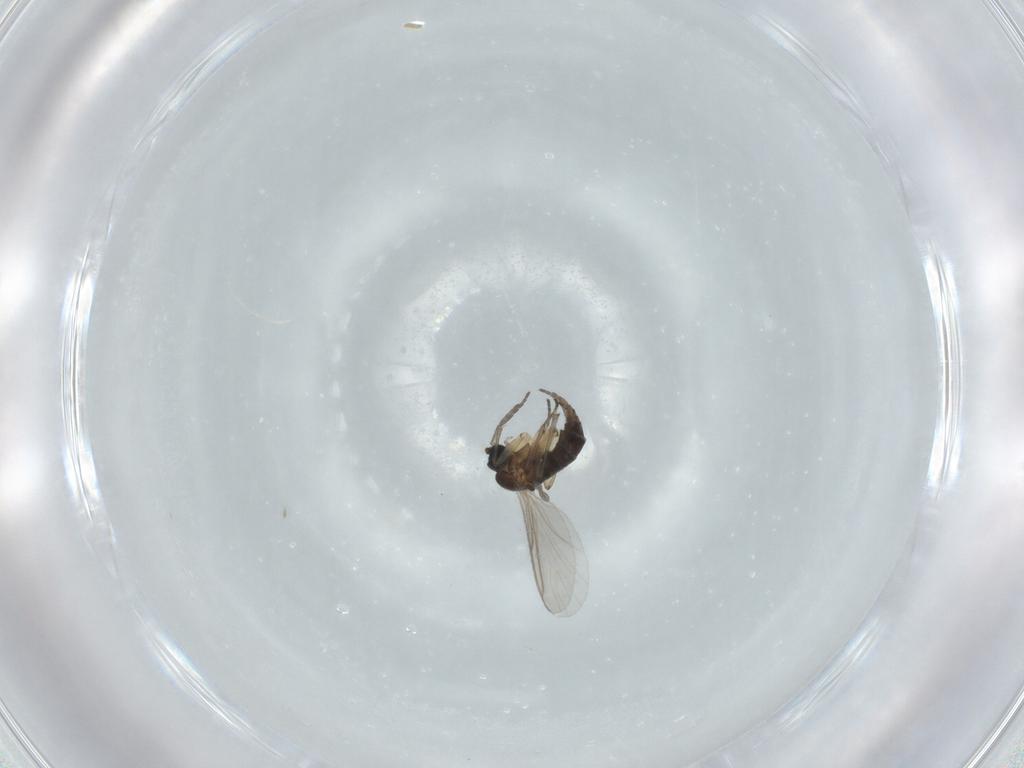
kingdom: Animalia
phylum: Arthropoda
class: Insecta
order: Diptera
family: Sciaridae
